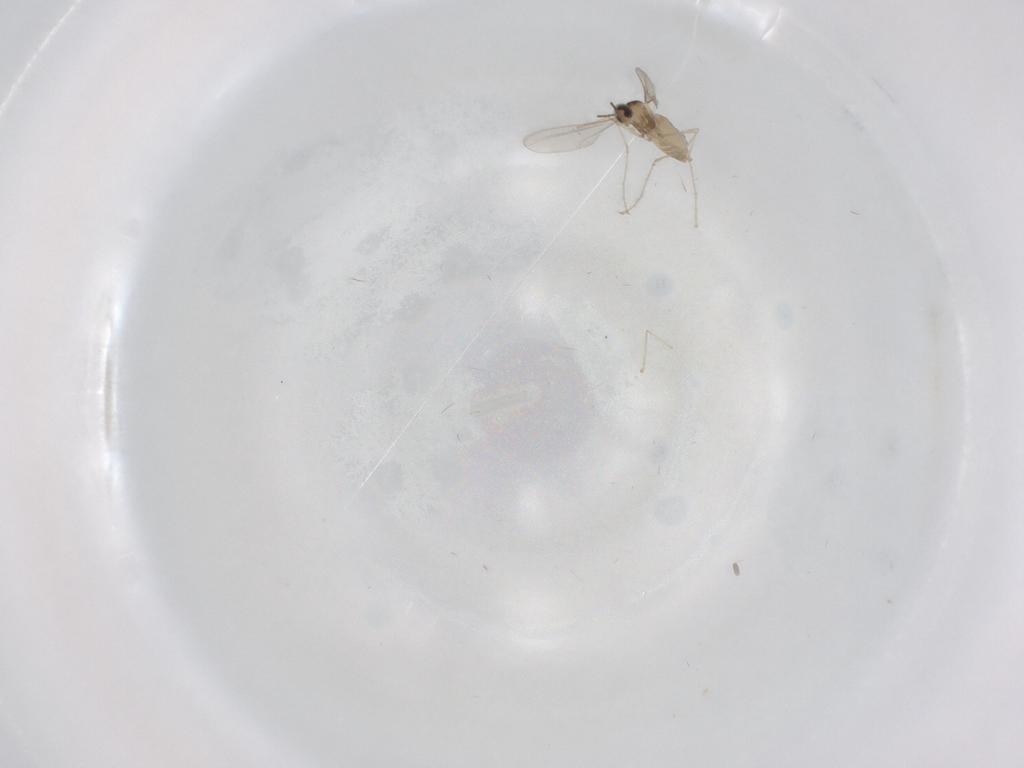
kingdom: Animalia
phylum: Arthropoda
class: Insecta
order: Diptera
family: Cecidomyiidae
